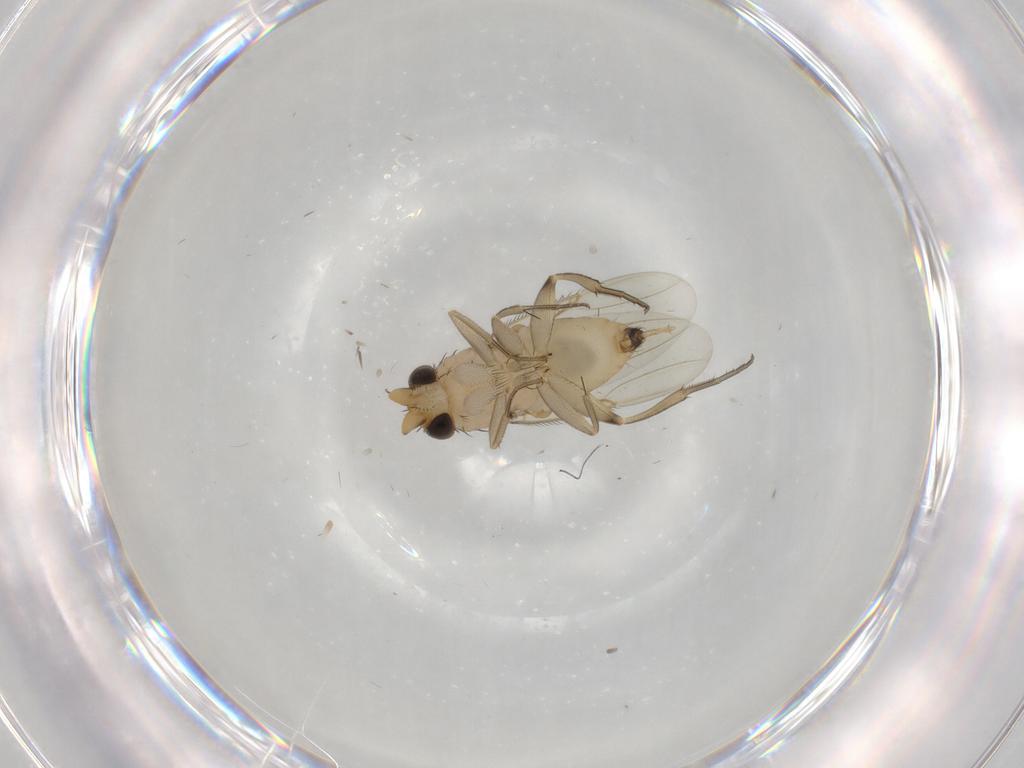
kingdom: Animalia
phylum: Arthropoda
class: Insecta
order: Diptera
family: Phoridae
